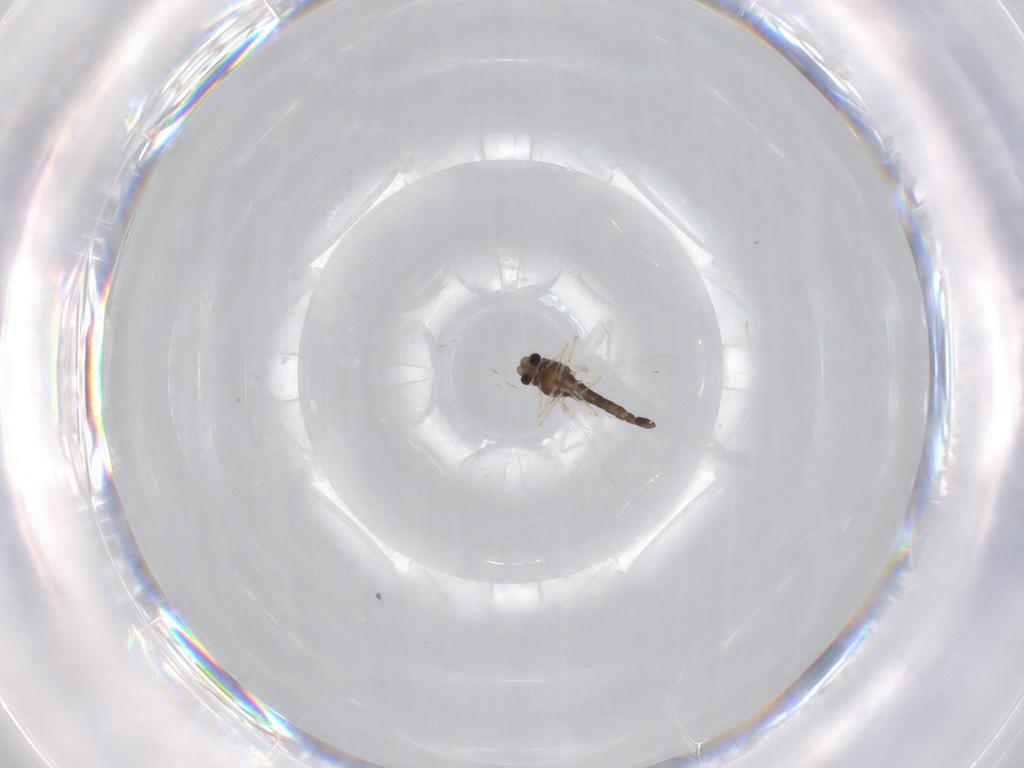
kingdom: Animalia
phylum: Arthropoda
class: Insecta
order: Diptera
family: Chironomidae
